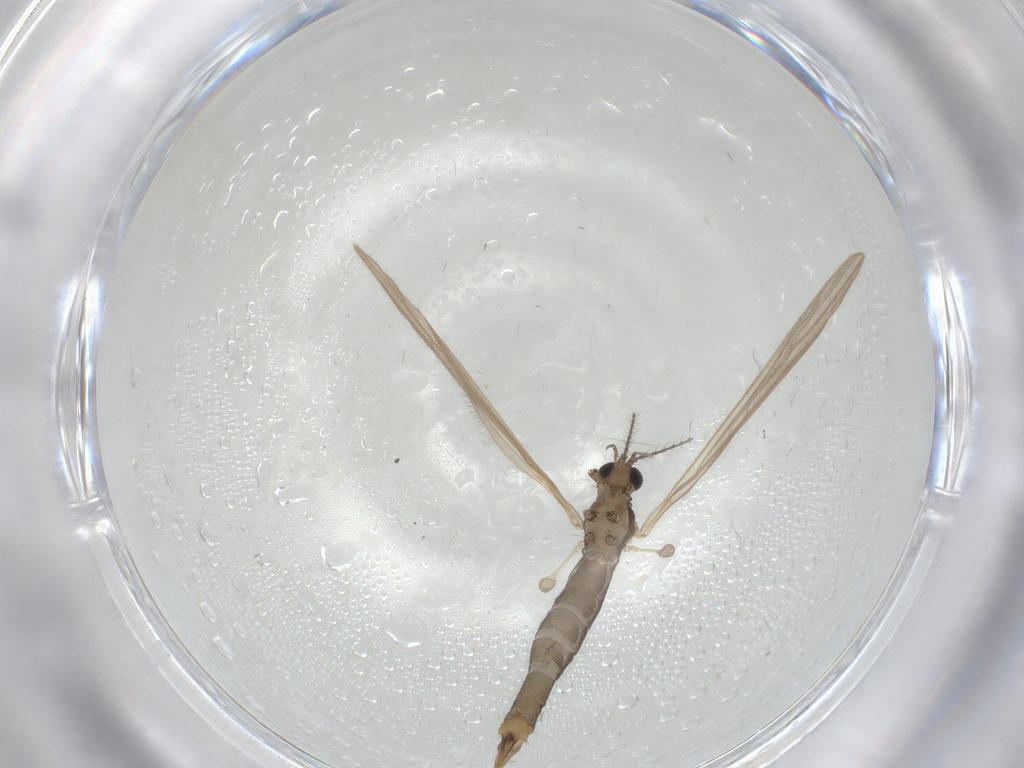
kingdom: Animalia
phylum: Arthropoda
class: Insecta
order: Diptera
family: Limoniidae
